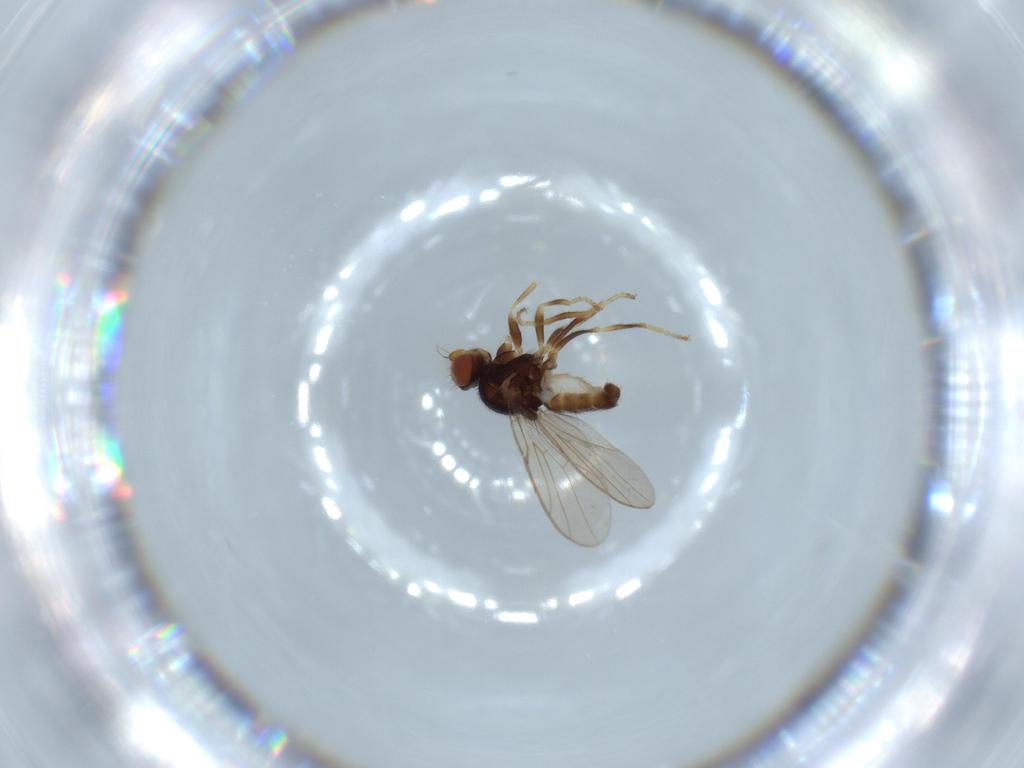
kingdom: Animalia
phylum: Arthropoda
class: Insecta
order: Diptera
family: Chloropidae
